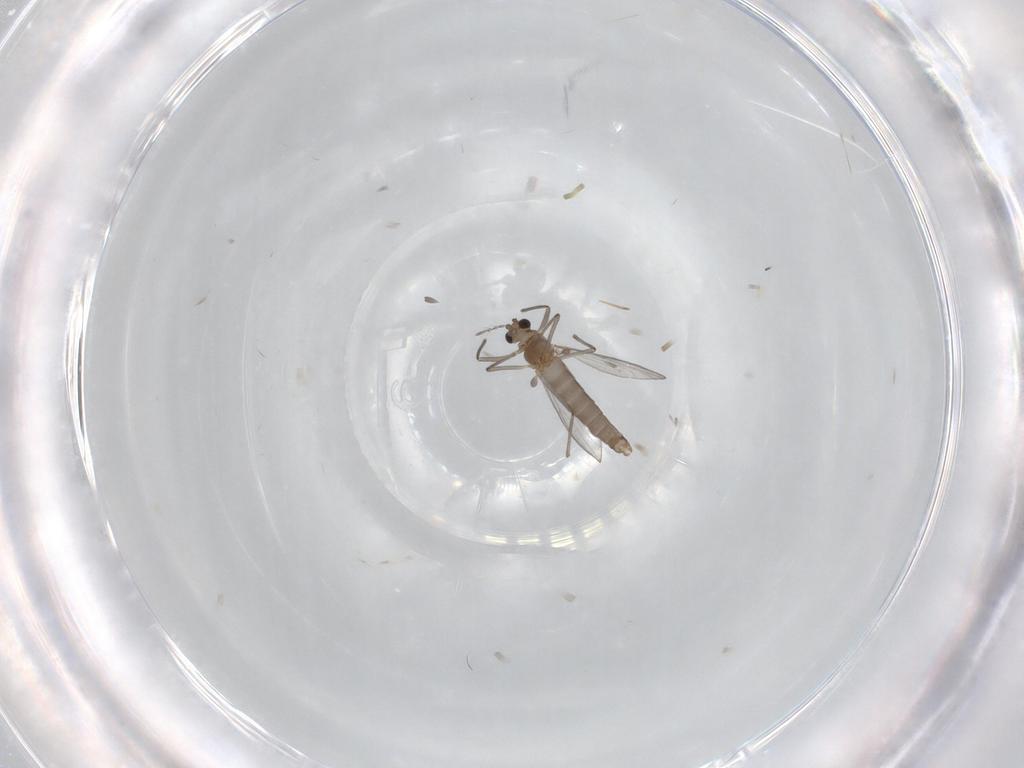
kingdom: Animalia
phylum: Arthropoda
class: Insecta
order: Diptera
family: Chironomidae
